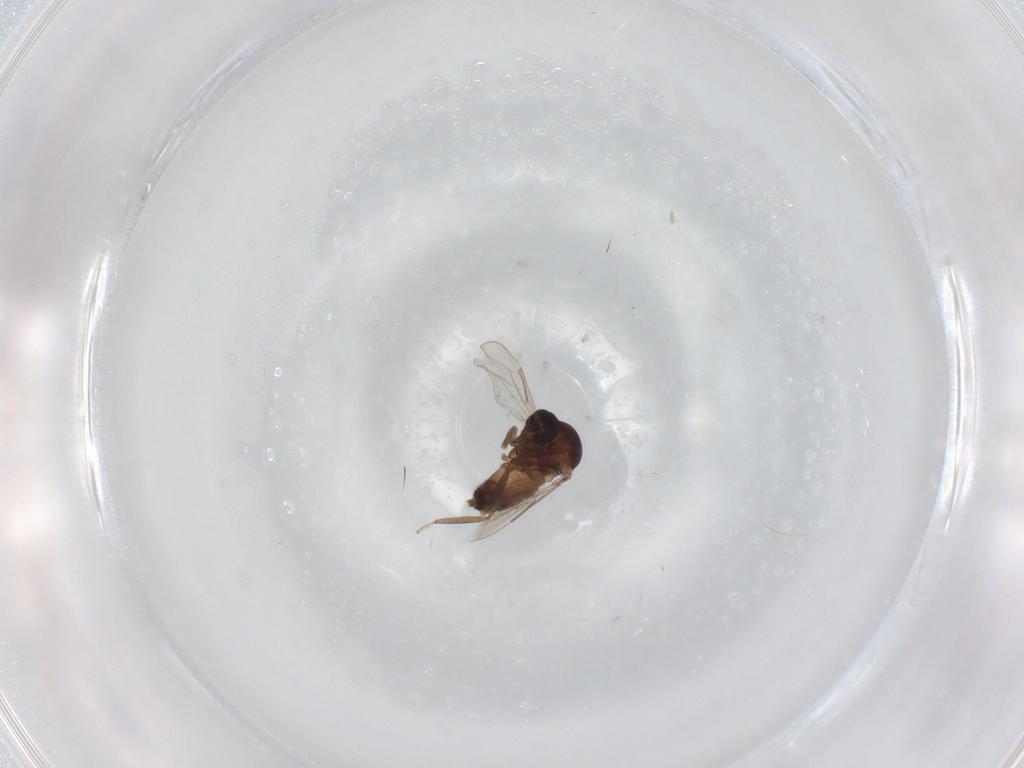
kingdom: Animalia
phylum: Arthropoda
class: Insecta
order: Diptera
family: Ceratopogonidae
